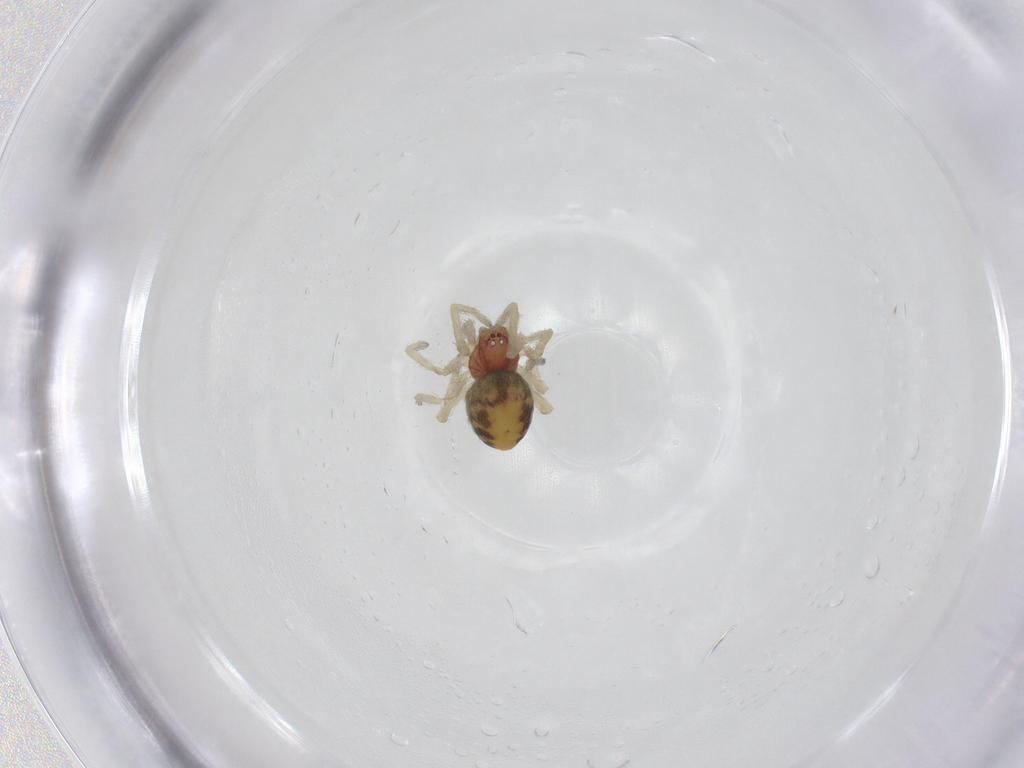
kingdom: Animalia
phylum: Arthropoda
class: Arachnida
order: Araneae
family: Dictynidae
